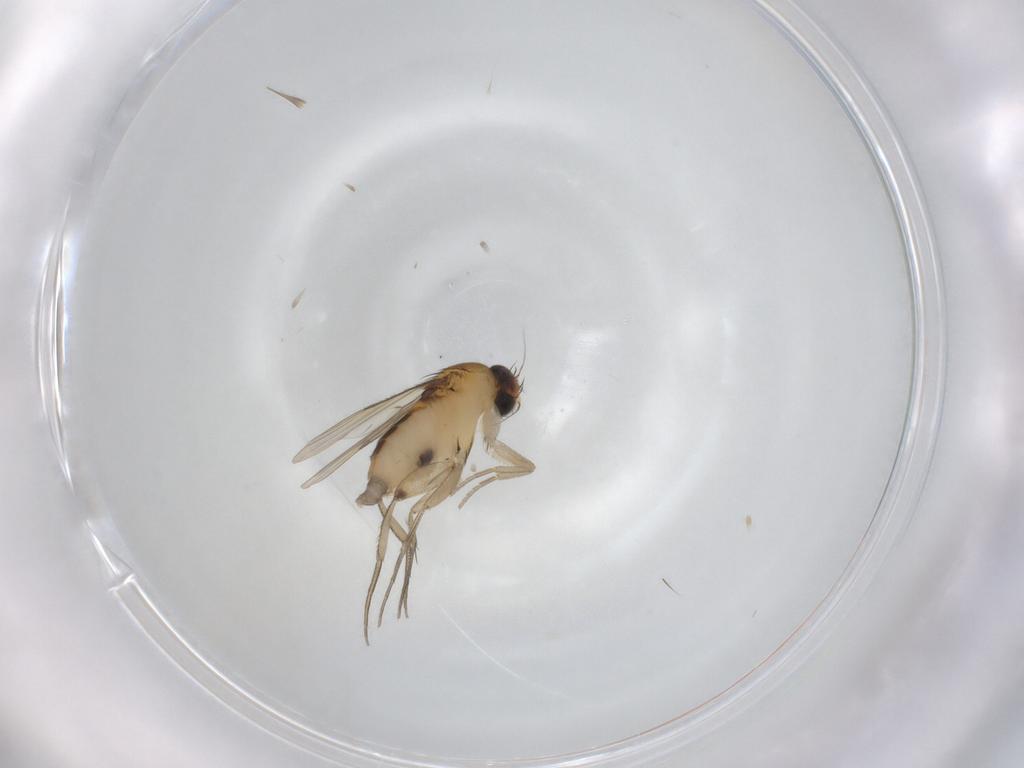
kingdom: Animalia
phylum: Arthropoda
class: Insecta
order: Diptera
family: Phoridae
